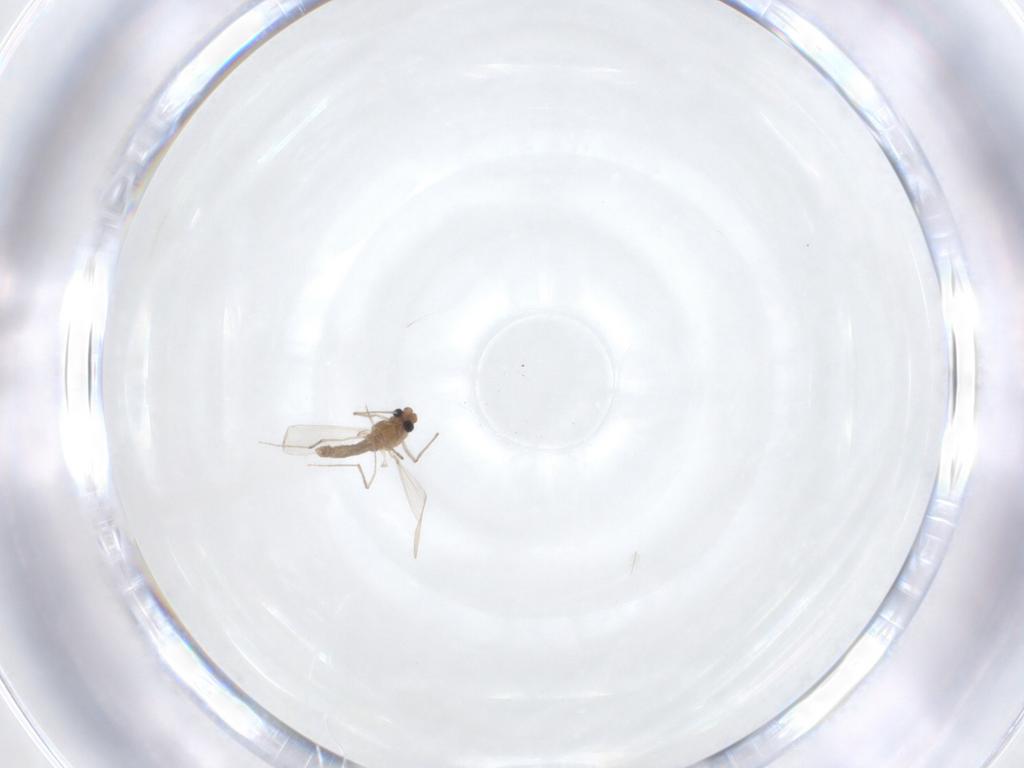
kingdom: Animalia
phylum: Arthropoda
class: Insecta
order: Diptera
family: Chironomidae
